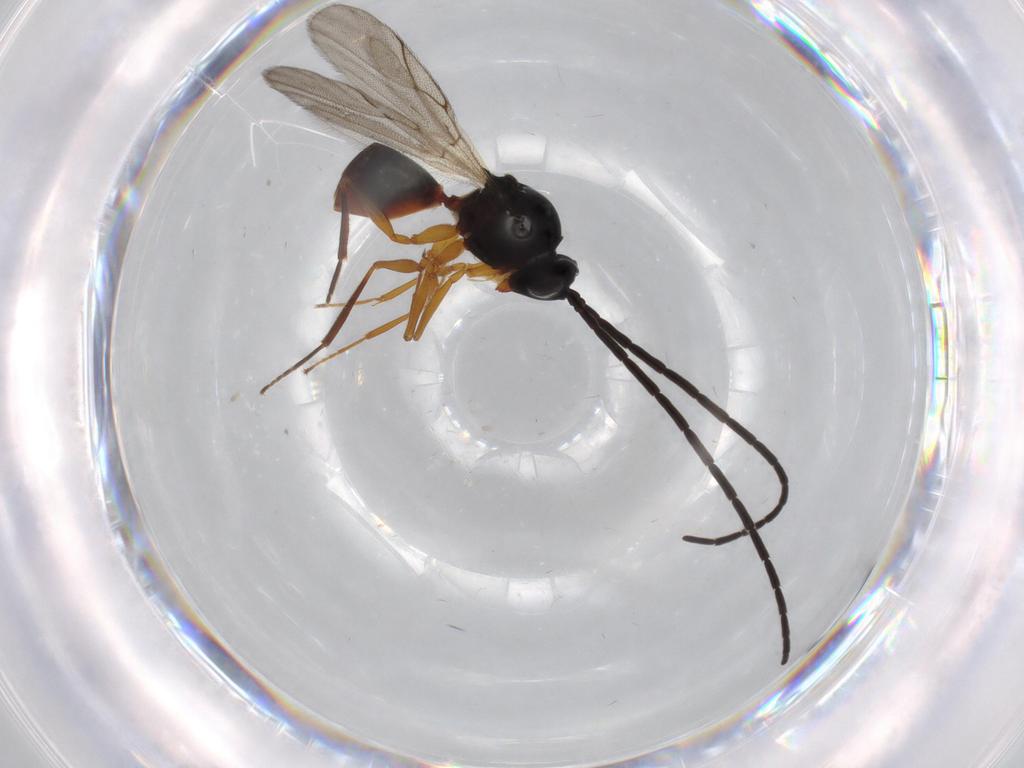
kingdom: Animalia
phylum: Arthropoda
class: Insecta
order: Hymenoptera
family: Figitidae
